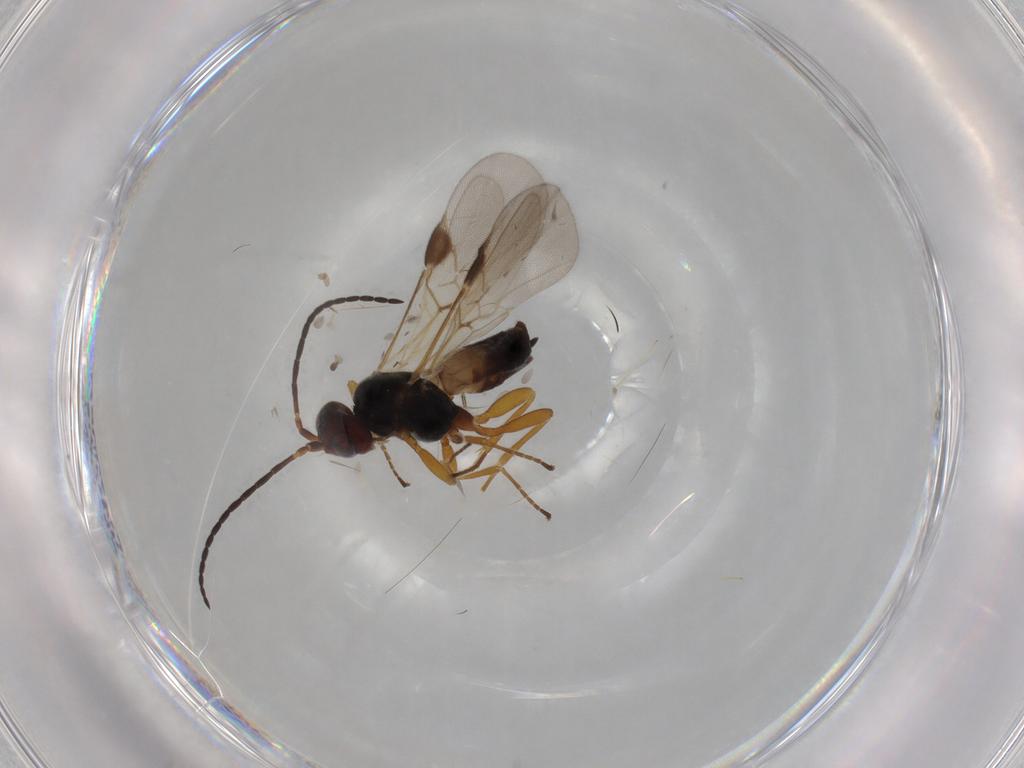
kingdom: Animalia
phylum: Arthropoda
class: Insecta
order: Hymenoptera
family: Braconidae
